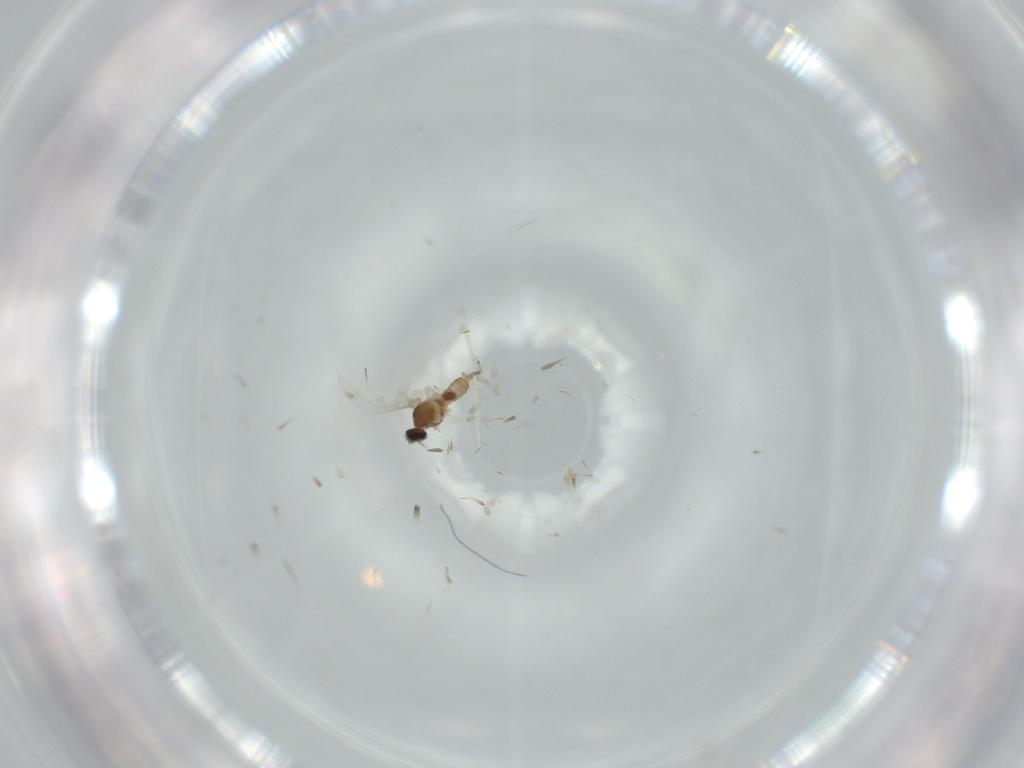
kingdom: Animalia
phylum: Arthropoda
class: Insecta
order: Diptera
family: Cecidomyiidae
